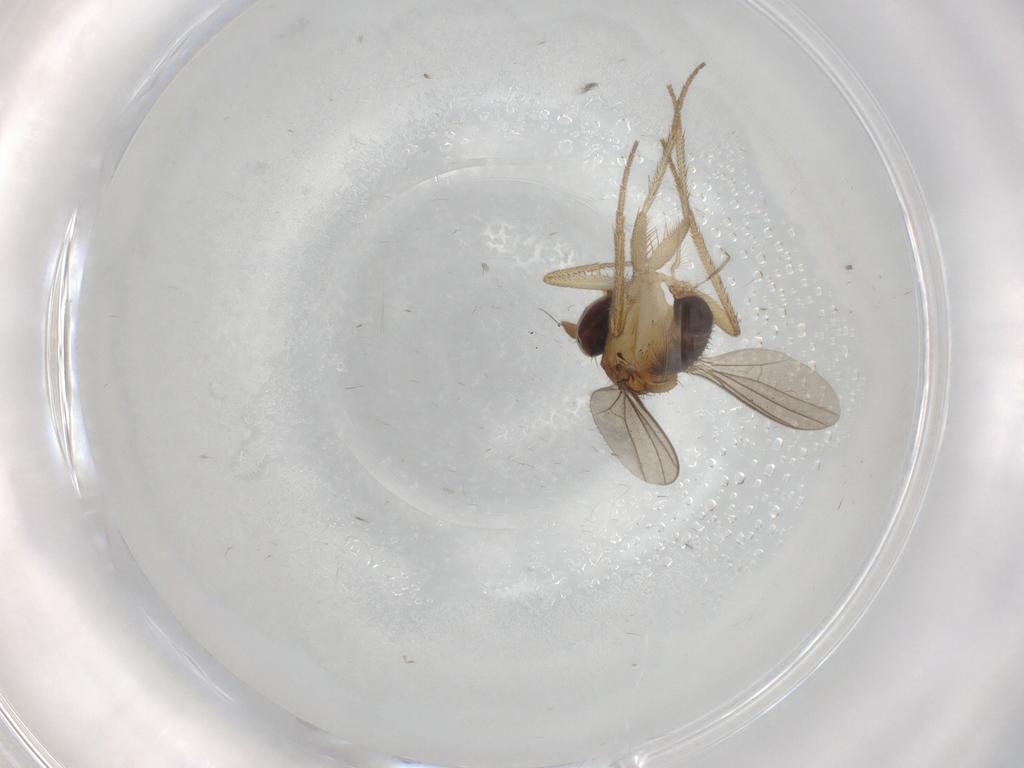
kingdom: Animalia
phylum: Arthropoda
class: Insecta
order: Diptera
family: Dolichopodidae
